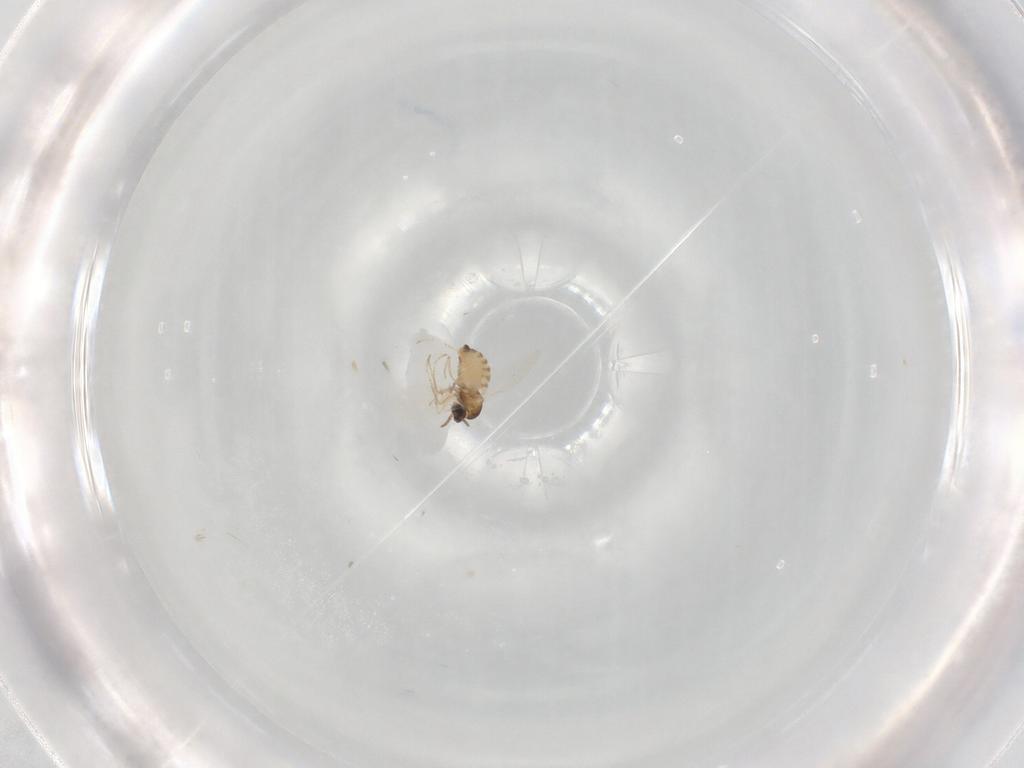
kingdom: Animalia
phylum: Arthropoda
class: Insecta
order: Diptera
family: Cecidomyiidae
